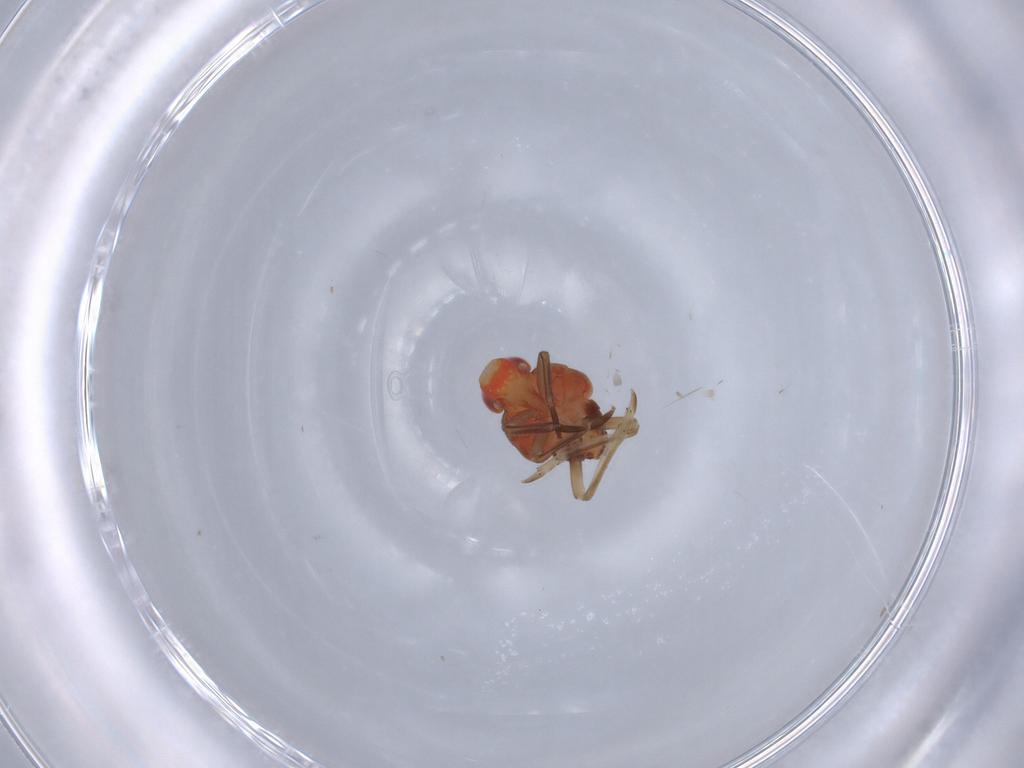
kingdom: Animalia
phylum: Arthropoda
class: Insecta
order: Hemiptera
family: Fulgoroidea_incertae_sedis
